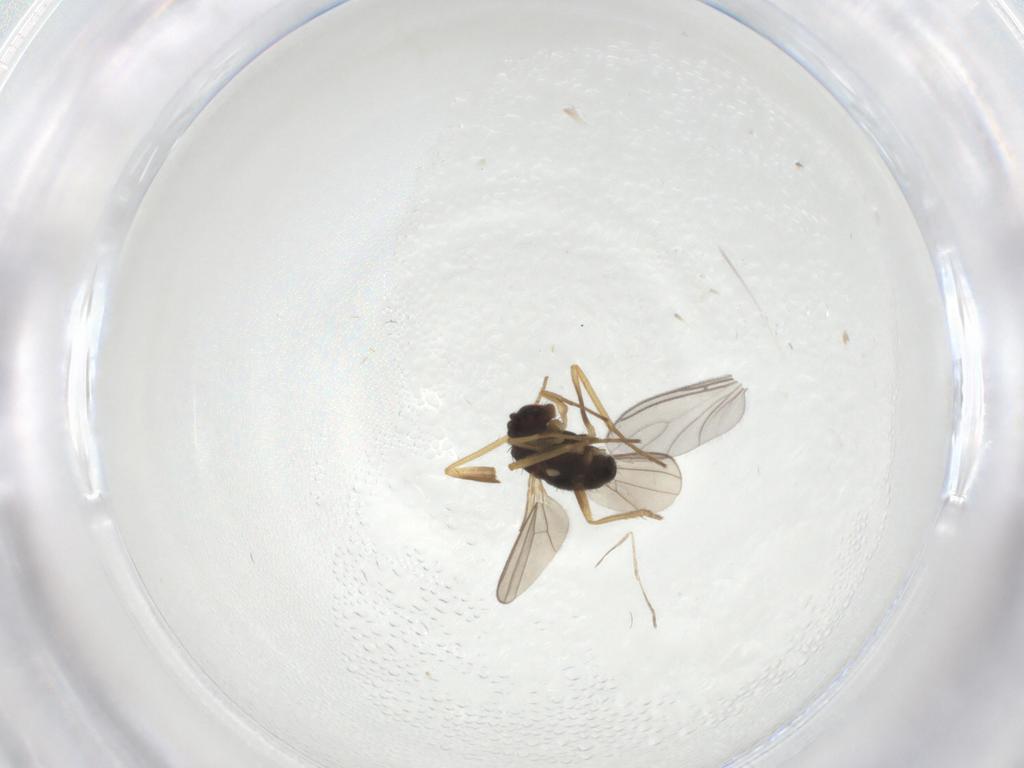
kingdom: Animalia
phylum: Arthropoda
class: Insecta
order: Diptera
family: Dolichopodidae
